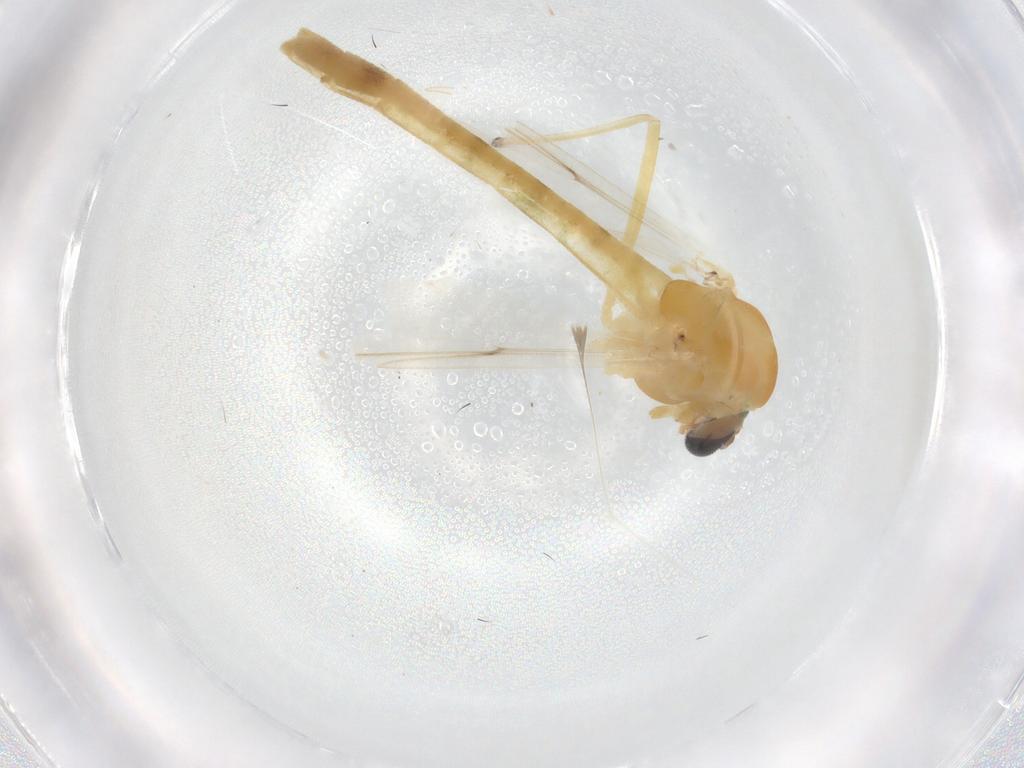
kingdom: Animalia
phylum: Arthropoda
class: Insecta
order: Diptera
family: Chironomidae
